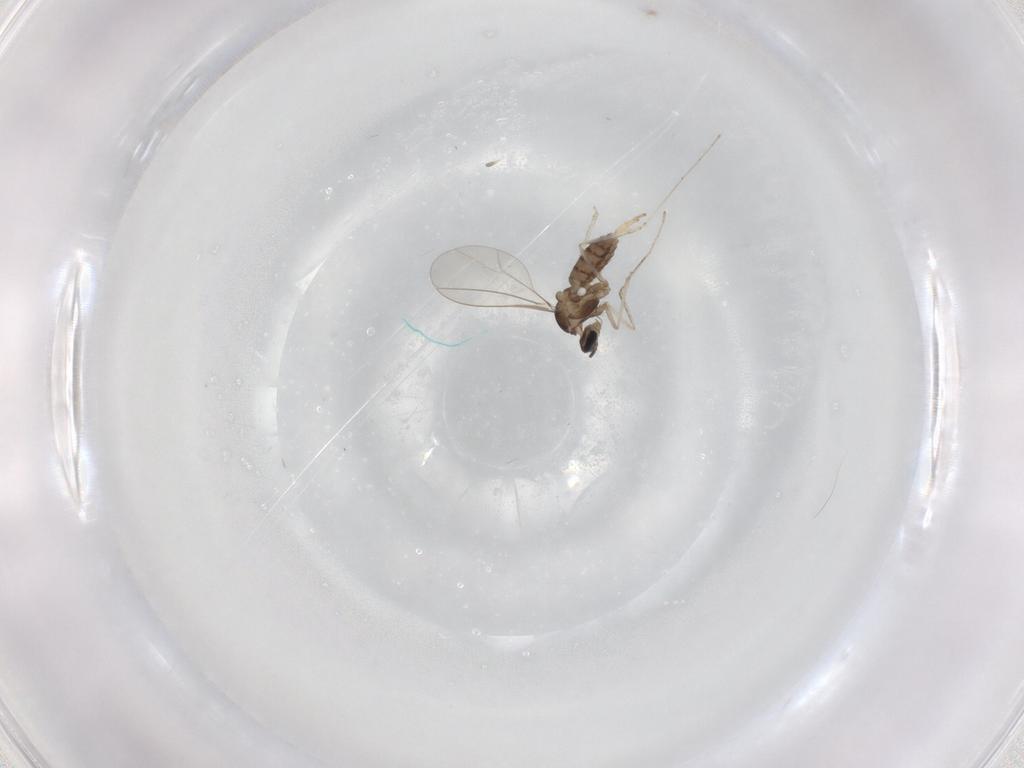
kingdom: Animalia
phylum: Arthropoda
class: Insecta
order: Diptera
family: Cecidomyiidae
